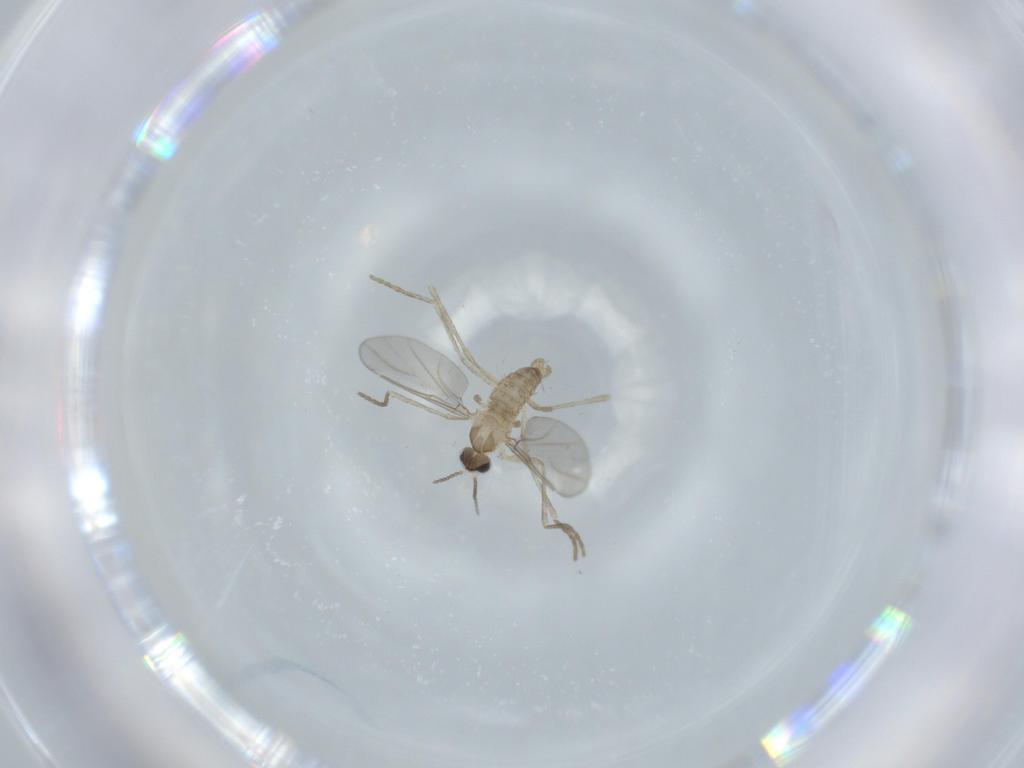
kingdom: Animalia
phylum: Arthropoda
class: Insecta
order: Diptera
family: Cecidomyiidae
